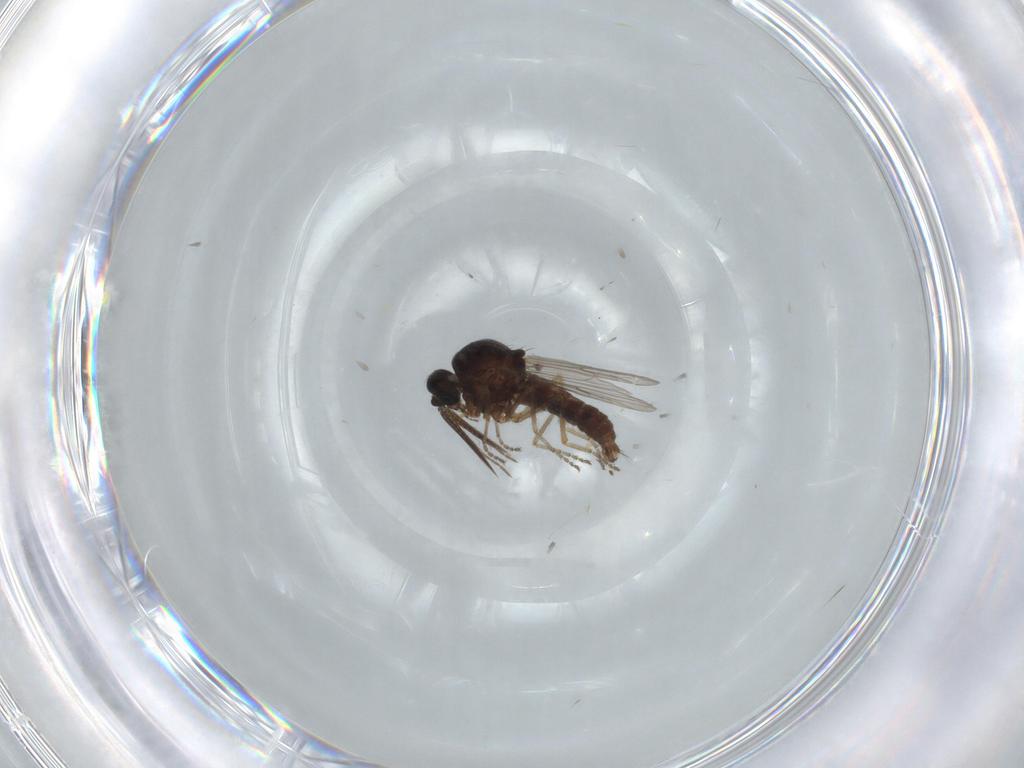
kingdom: Animalia
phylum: Arthropoda
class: Insecta
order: Diptera
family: Ceratopogonidae
